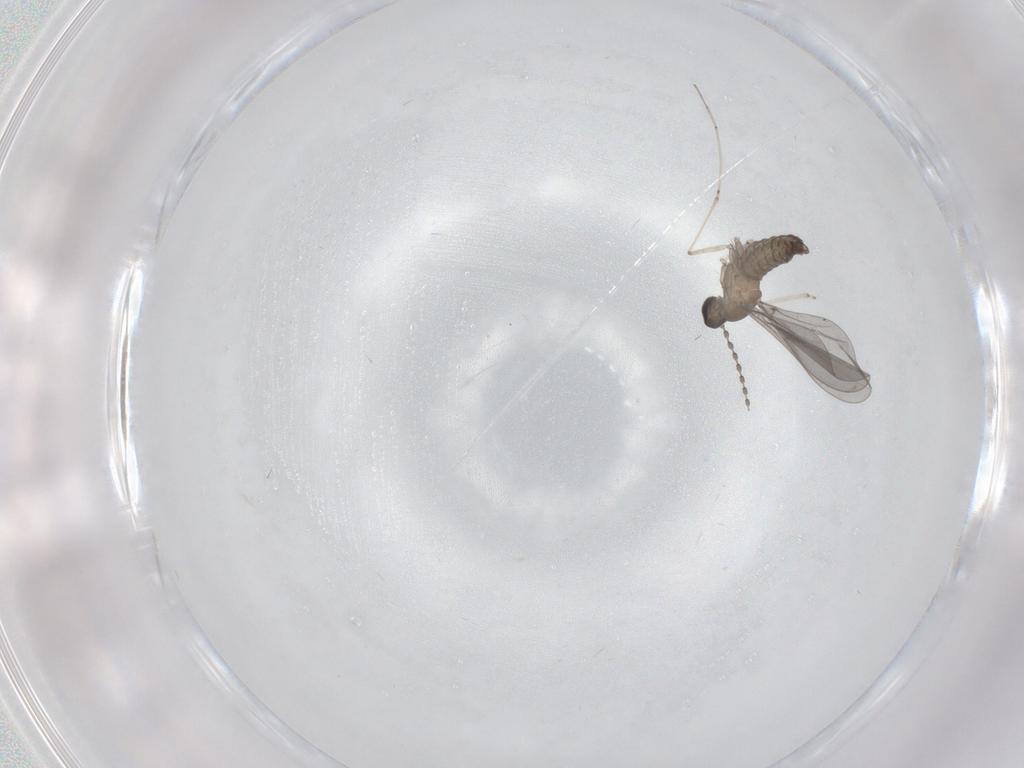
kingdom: Animalia
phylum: Arthropoda
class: Insecta
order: Diptera
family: Cecidomyiidae
